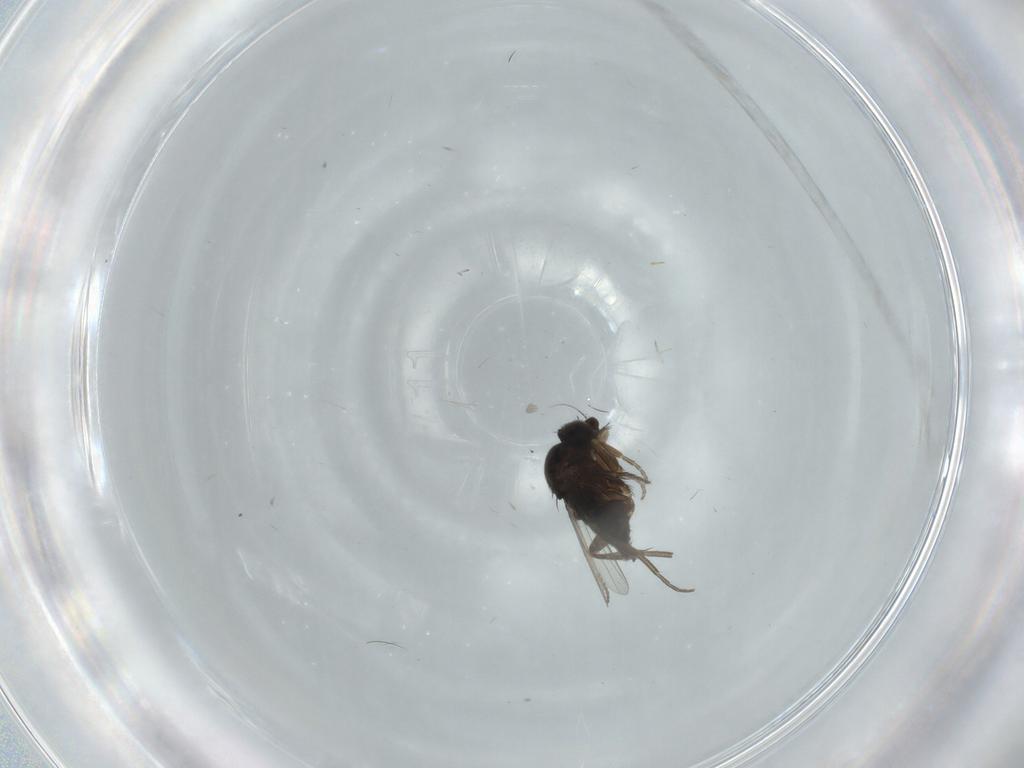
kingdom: Animalia
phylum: Arthropoda
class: Insecta
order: Diptera
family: Phoridae
